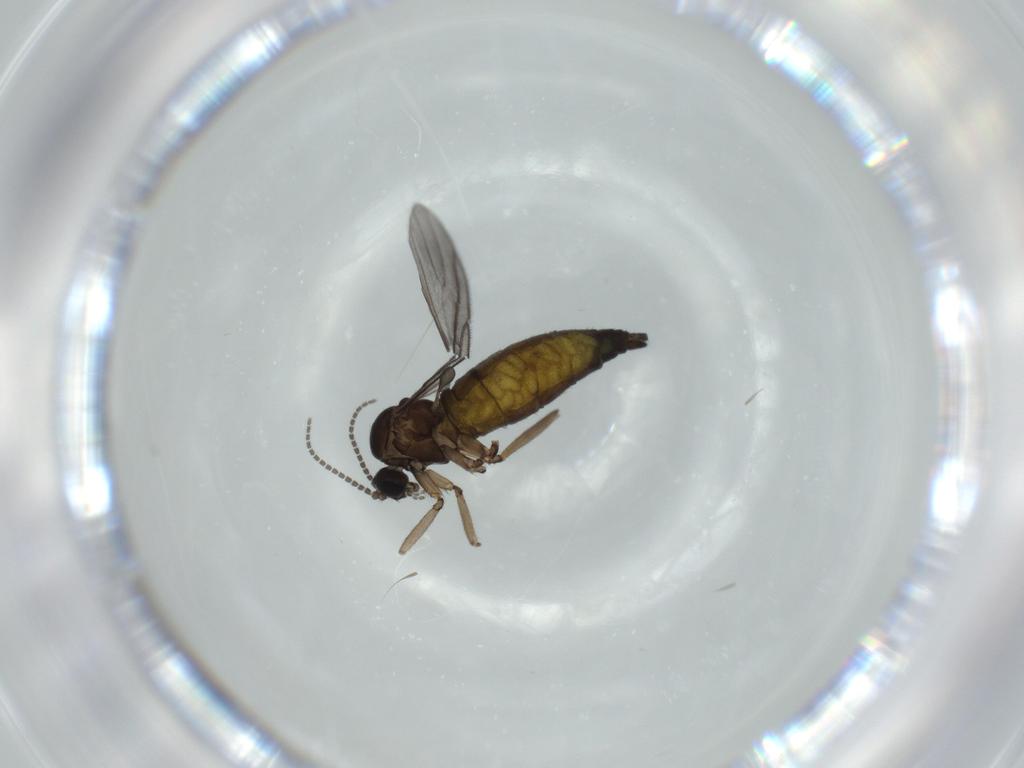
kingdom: Animalia
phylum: Arthropoda
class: Insecta
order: Diptera
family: Sciaridae
